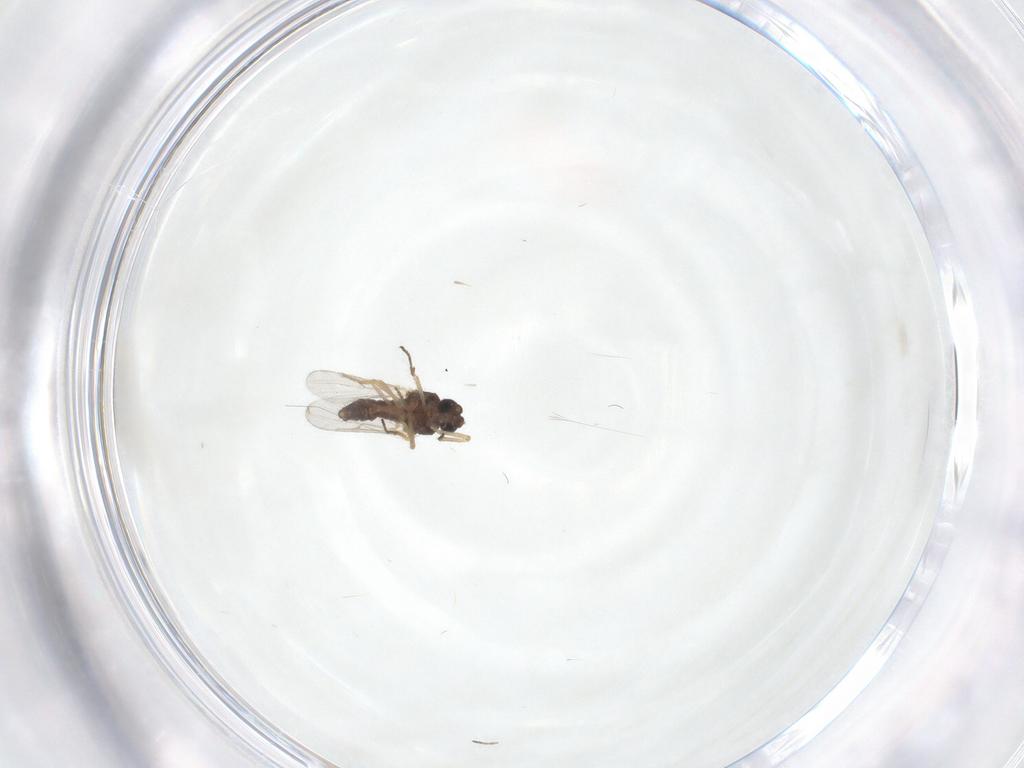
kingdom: Animalia
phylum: Arthropoda
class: Insecta
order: Diptera
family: Ceratopogonidae
